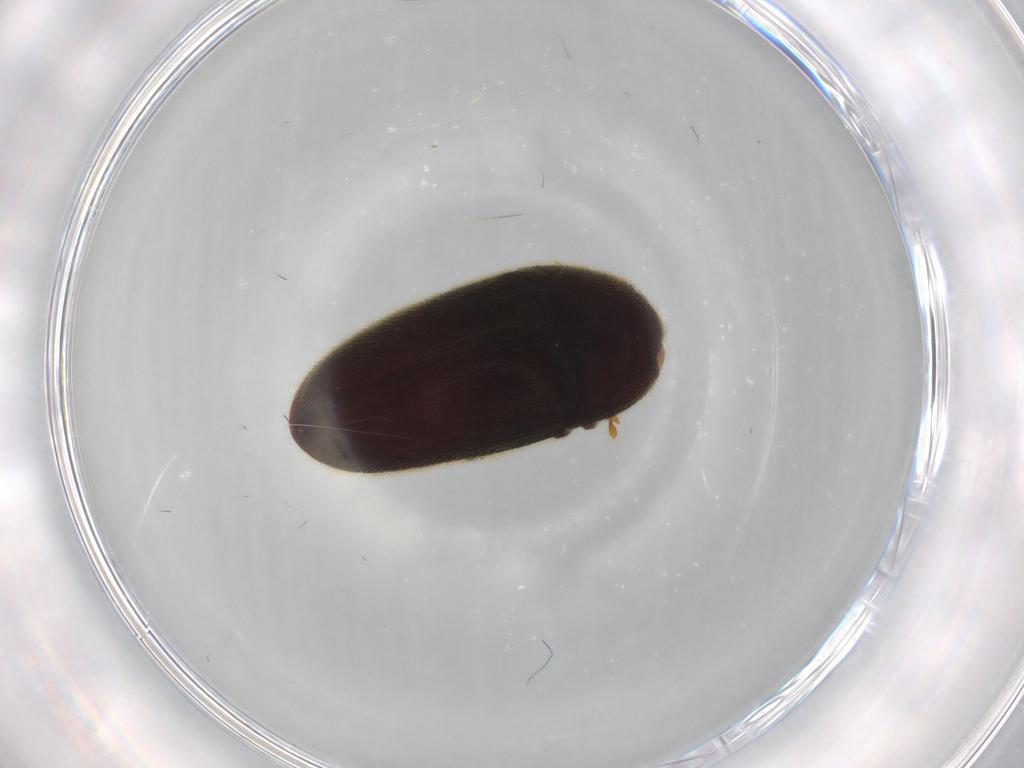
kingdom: Animalia
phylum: Arthropoda
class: Insecta
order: Coleoptera
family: Throscidae
